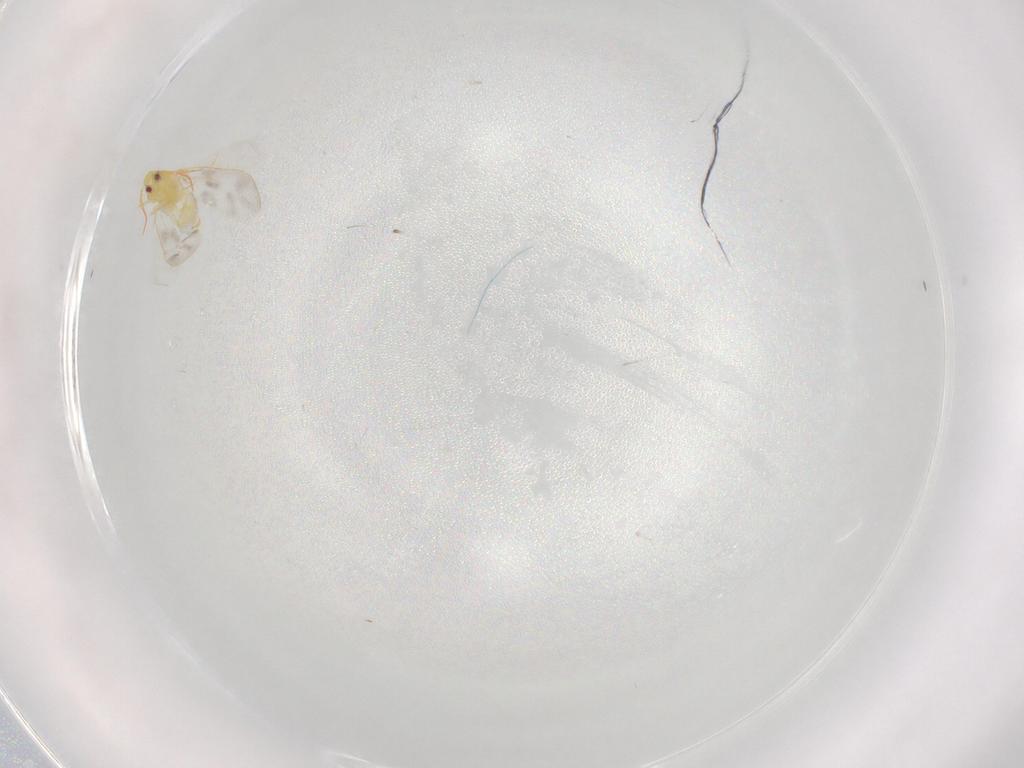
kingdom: Animalia
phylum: Arthropoda
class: Insecta
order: Hemiptera
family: Aleyrodidae
